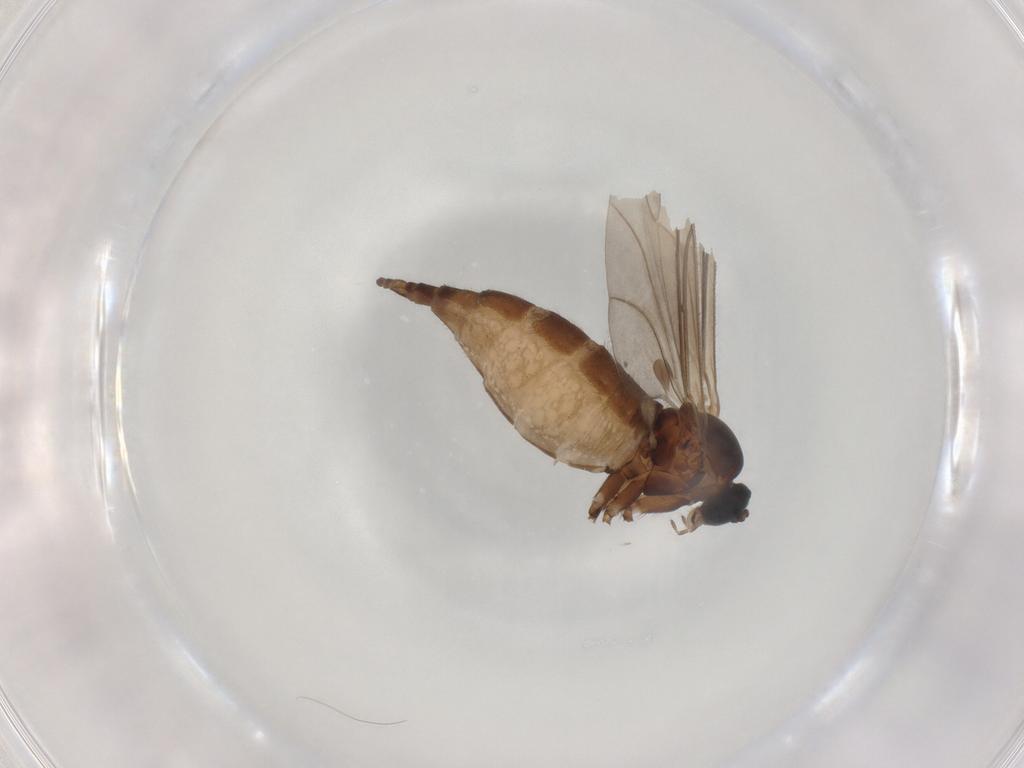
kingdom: Animalia
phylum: Arthropoda
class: Insecta
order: Diptera
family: Sciaridae
